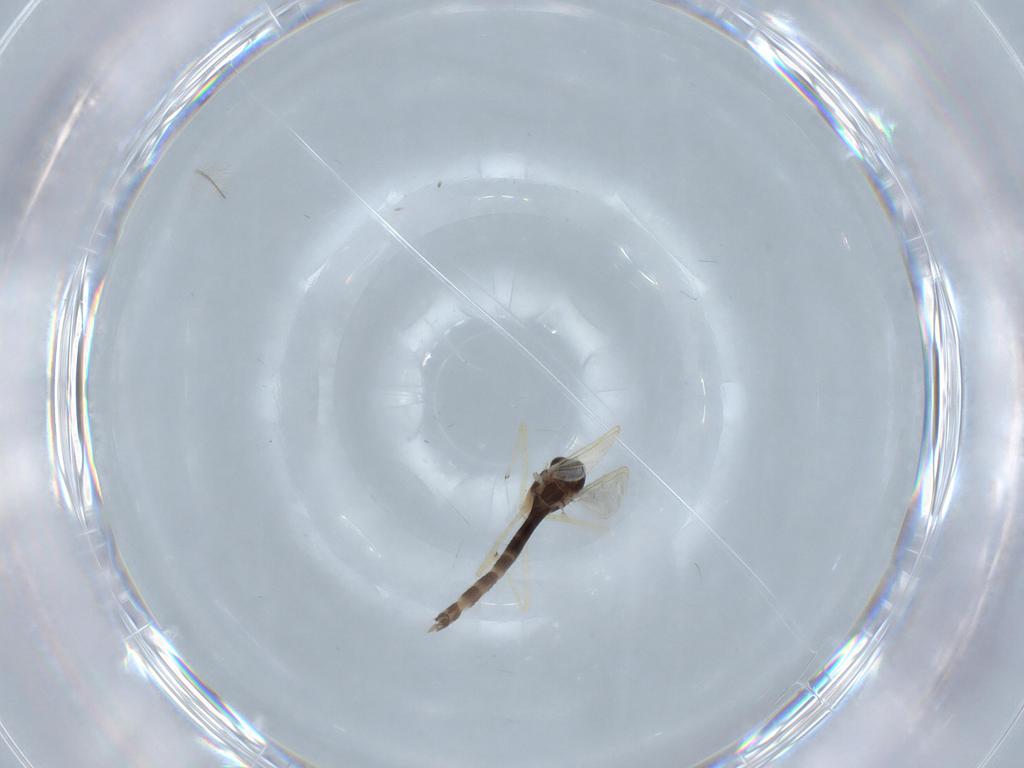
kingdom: Animalia
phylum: Arthropoda
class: Insecta
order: Diptera
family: Chironomidae
